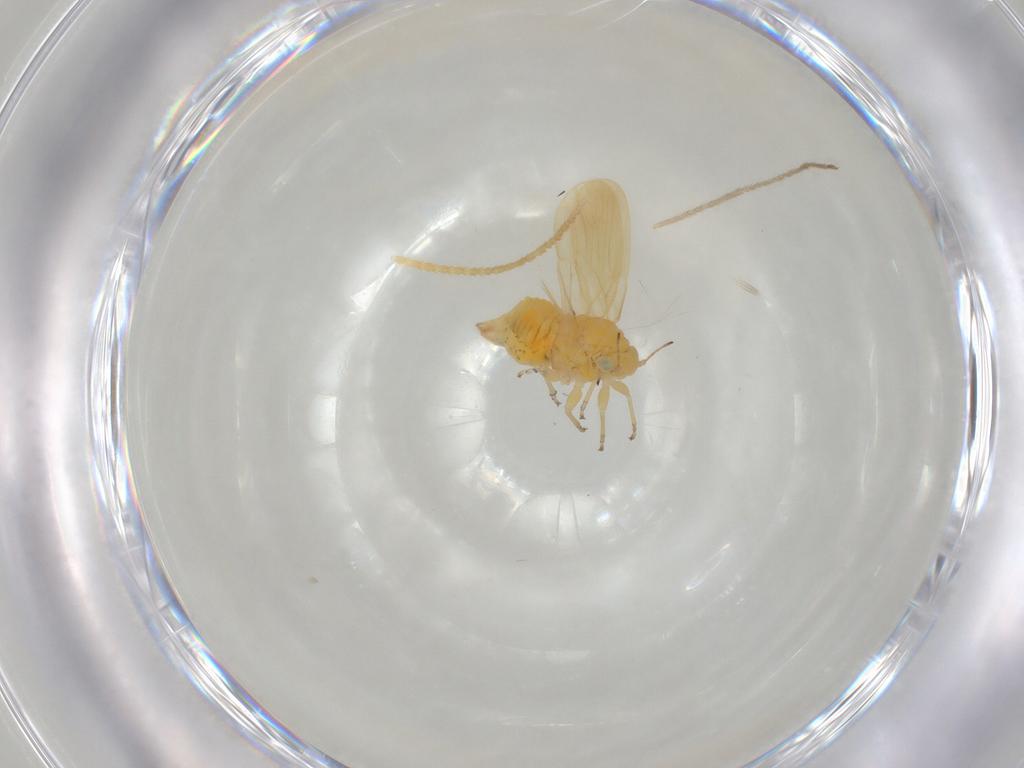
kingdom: Animalia
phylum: Arthropoda
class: Insecta
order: Hemiptera
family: Liviidae
